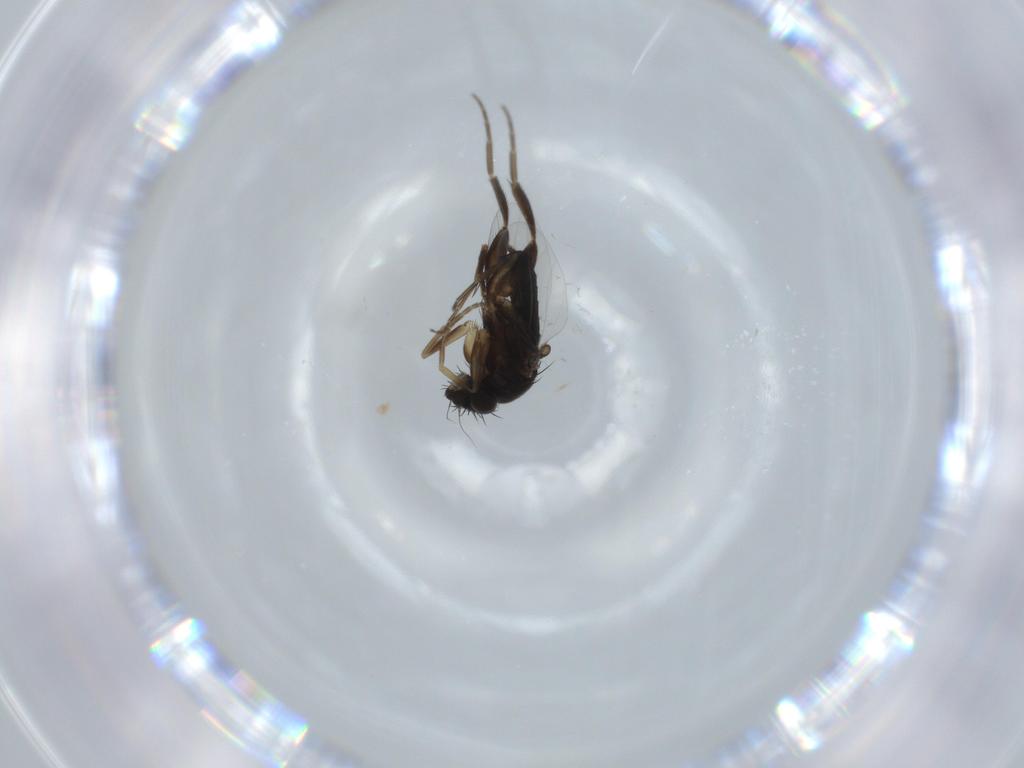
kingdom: Animalia
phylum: Arthropoda
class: Insecta
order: Diptera
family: Phoridae
